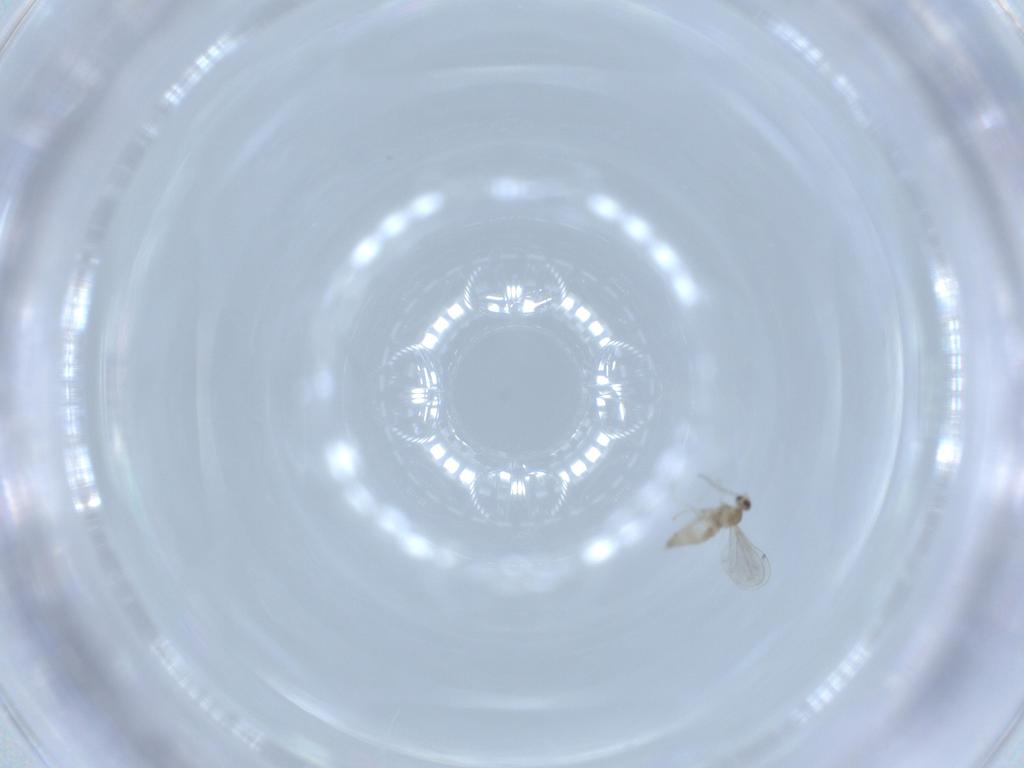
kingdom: Animalia
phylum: Arthropoda
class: Insecta
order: Diptera
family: Cecidomyiidae
